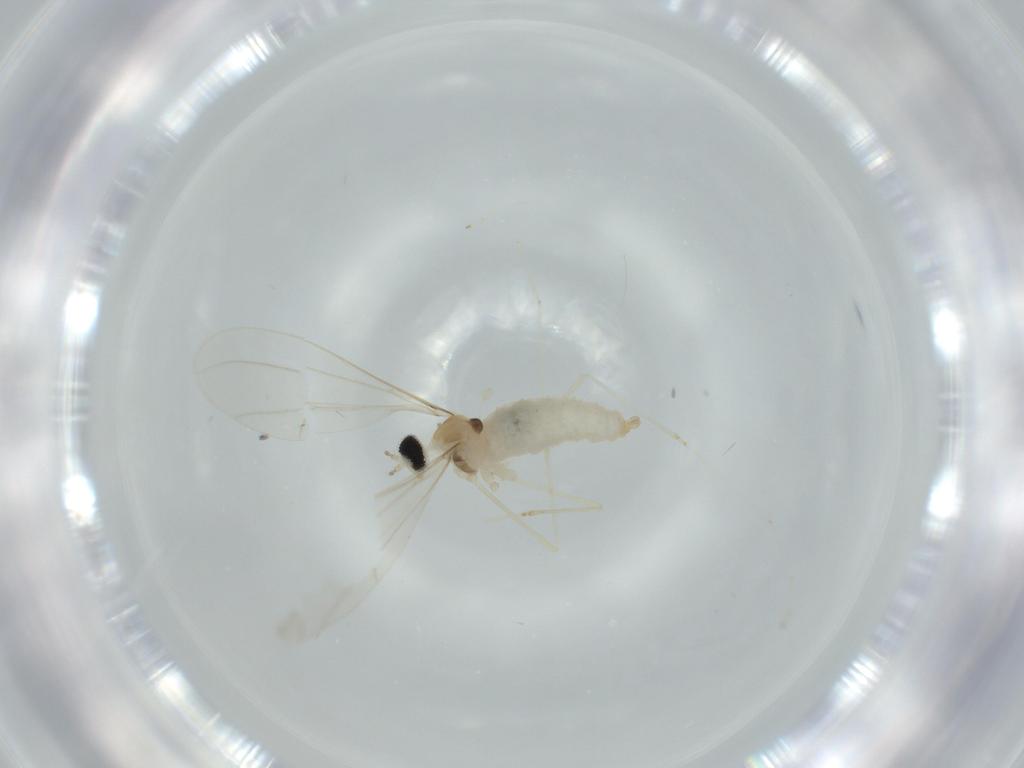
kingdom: Animalia
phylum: Arthropoda
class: Insecta
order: Diptera
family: Cecidomyiidae
